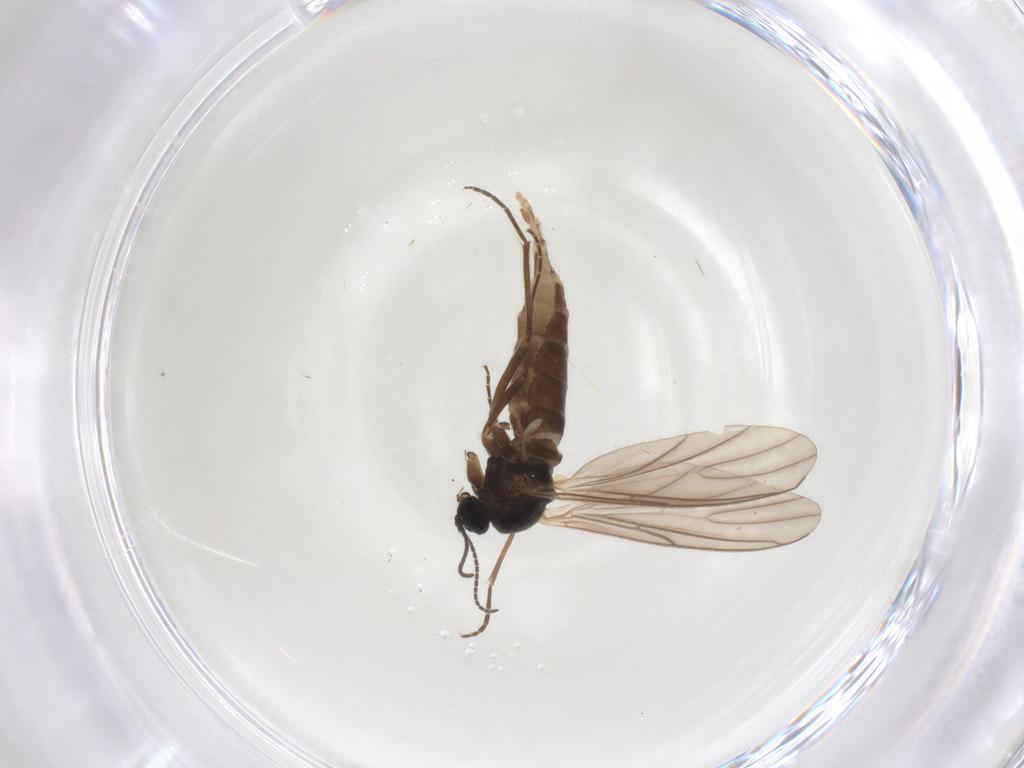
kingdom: Animalia
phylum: Arthropoda
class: Insecta
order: Diptera
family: Sciaridae
